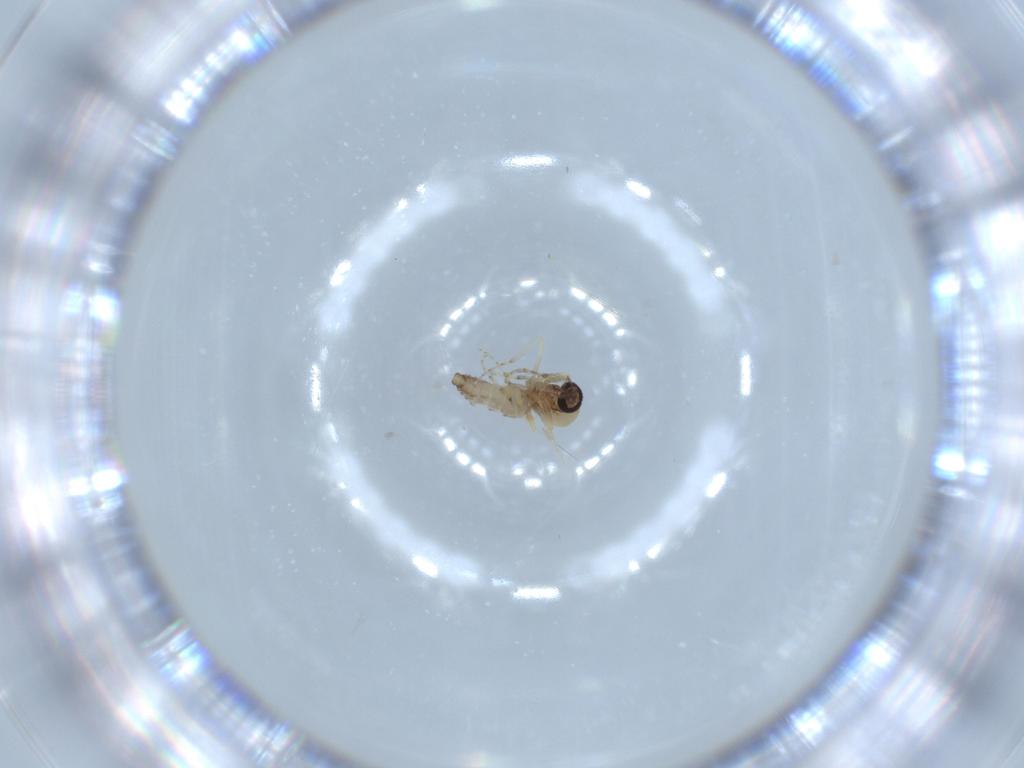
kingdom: Animalia
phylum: Arthropoda
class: Insecta
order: Diptera
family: Ceratopogonidae
